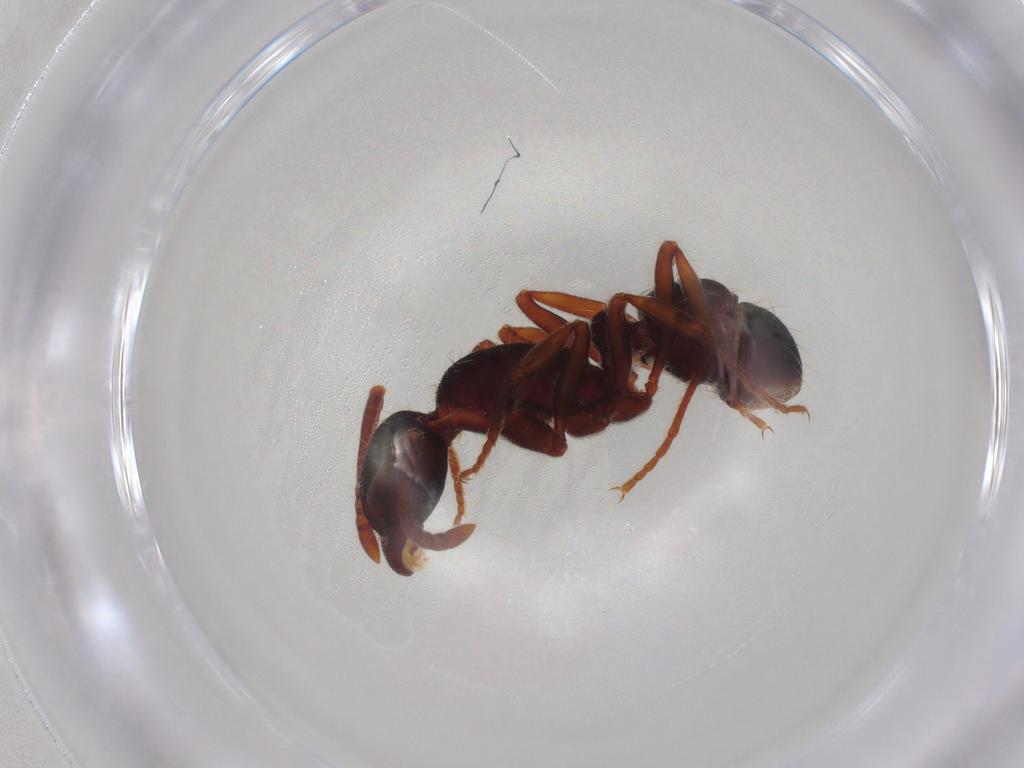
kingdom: Animalia
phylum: Arthropoda
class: Insecta
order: Hymenoptera
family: Formicidae
